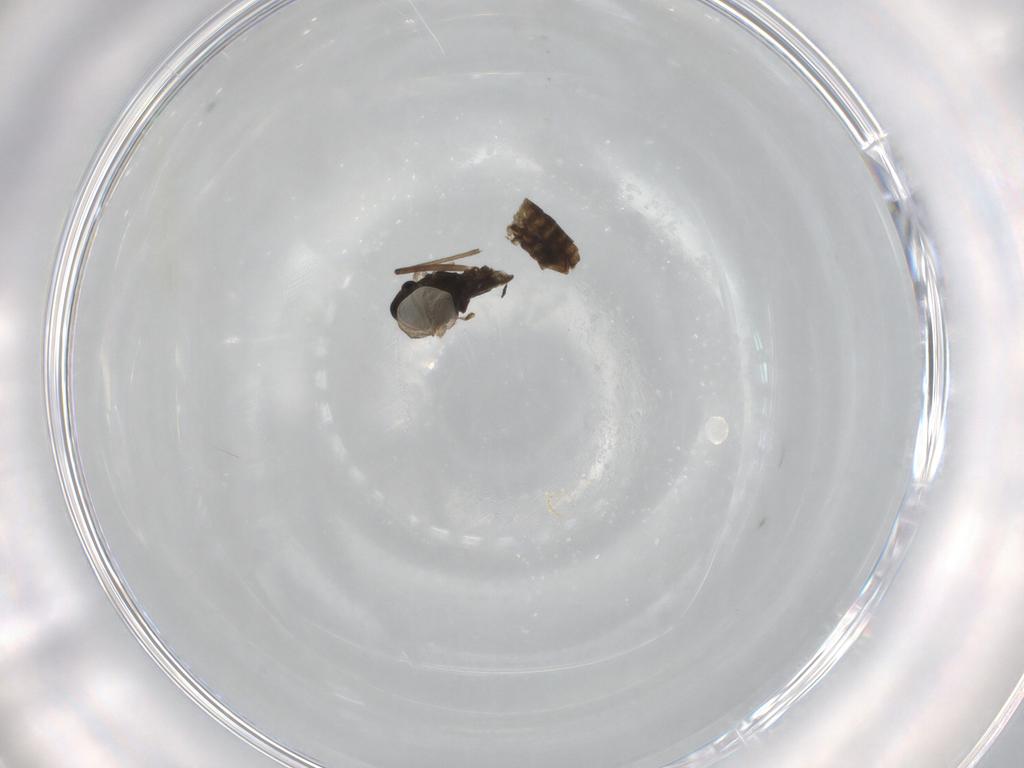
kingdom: Animalia
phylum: Arthropoda
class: Insecta
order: Diptera
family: Chironomidae
